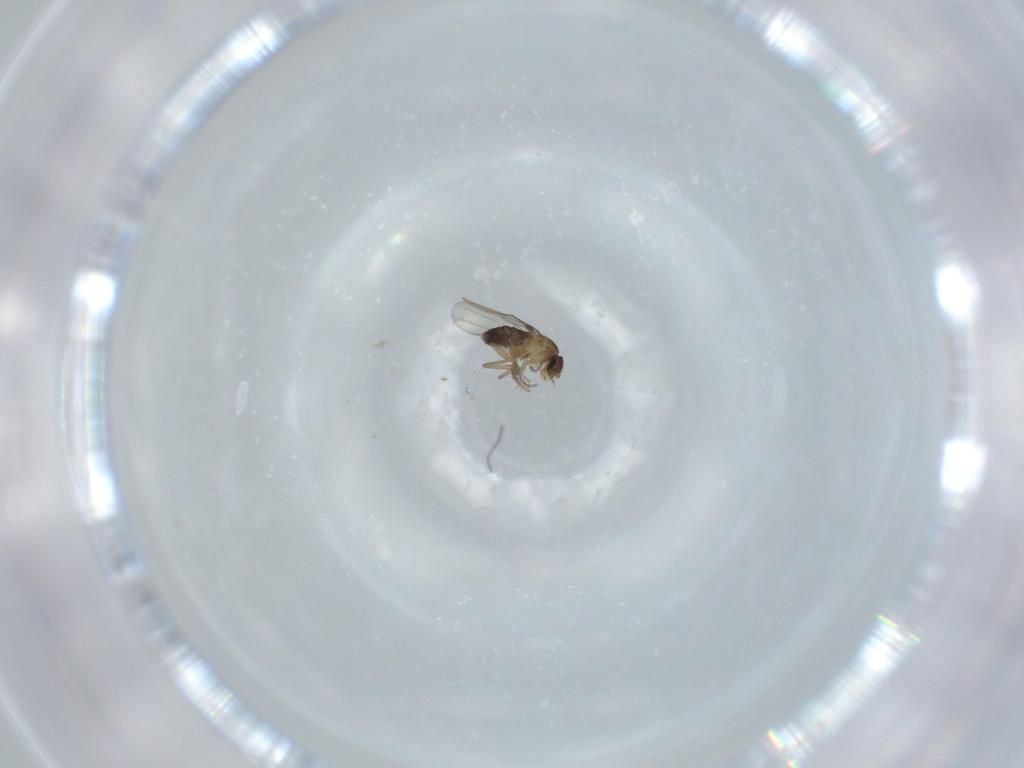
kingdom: Animalia
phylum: Arthropoda
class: Insecta
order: Diptera
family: Phoridae
